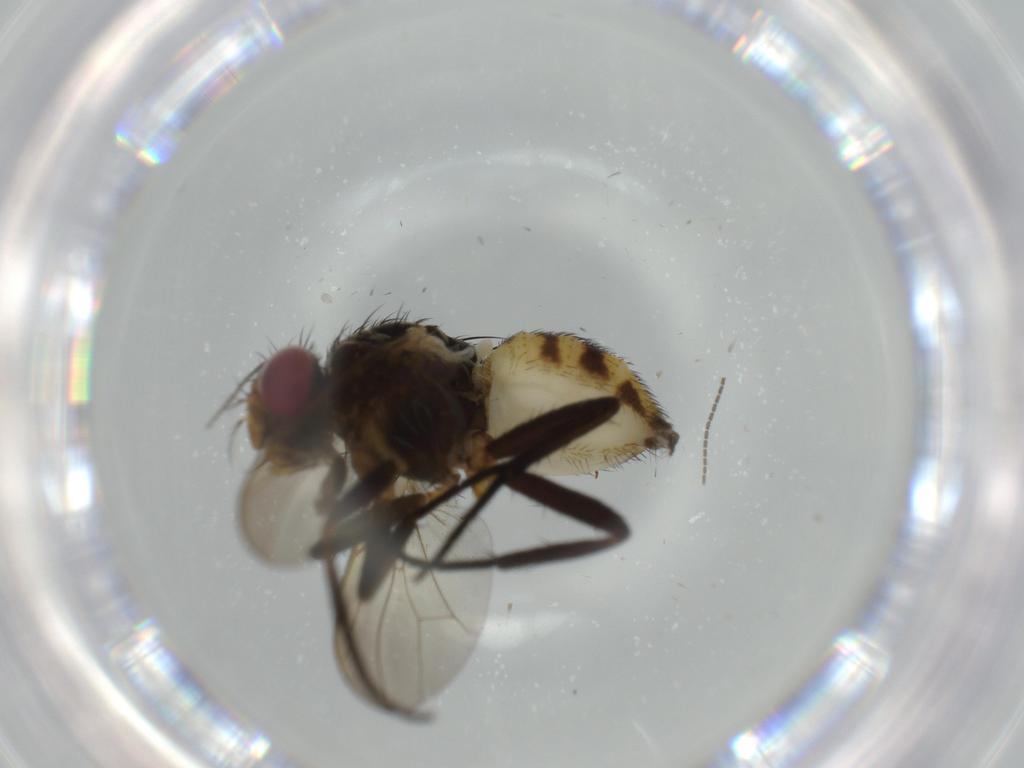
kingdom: Animalia
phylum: Arthropoda
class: Insecta
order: Diptera
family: Anthomyiidae
